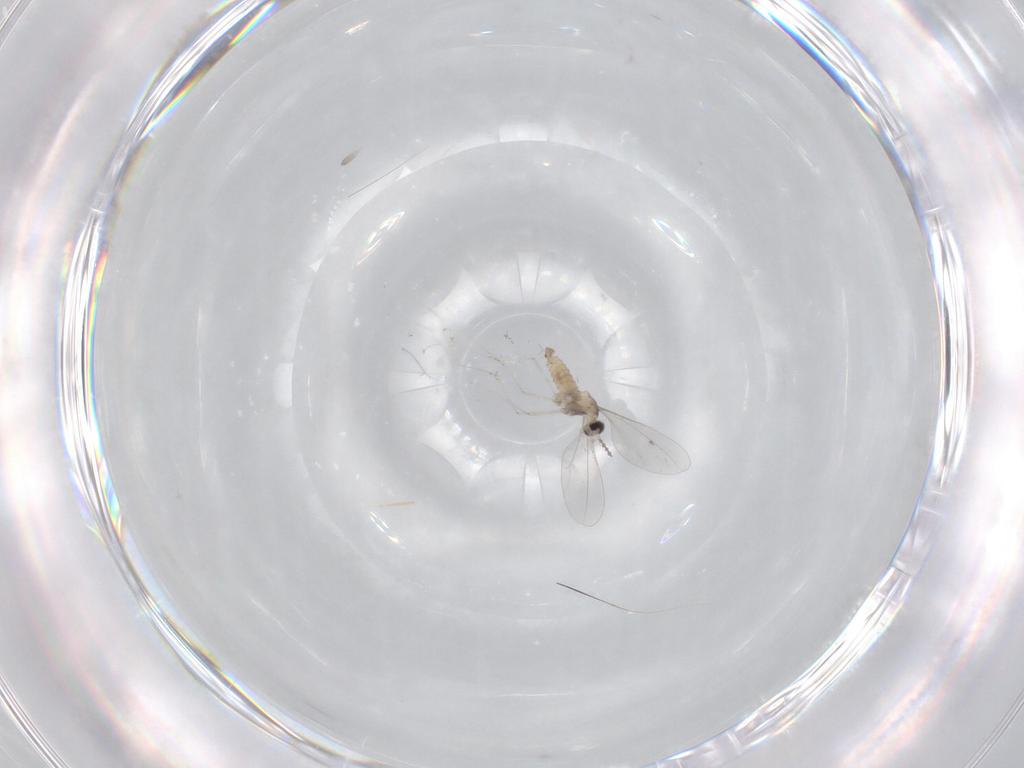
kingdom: Animalia
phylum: Arthropoda
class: Insecta
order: Diptera
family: Cecidomyiidae
